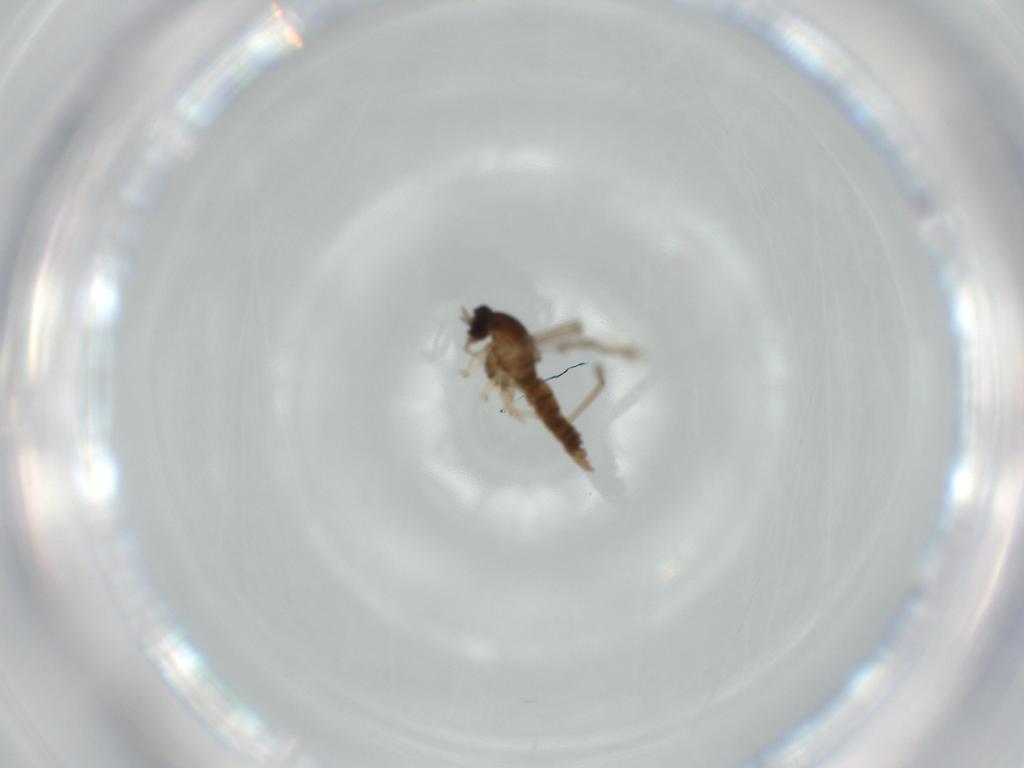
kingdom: Animalia
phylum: Arthropoda
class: Insecta
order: Diptera
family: Cecidomyiidae
